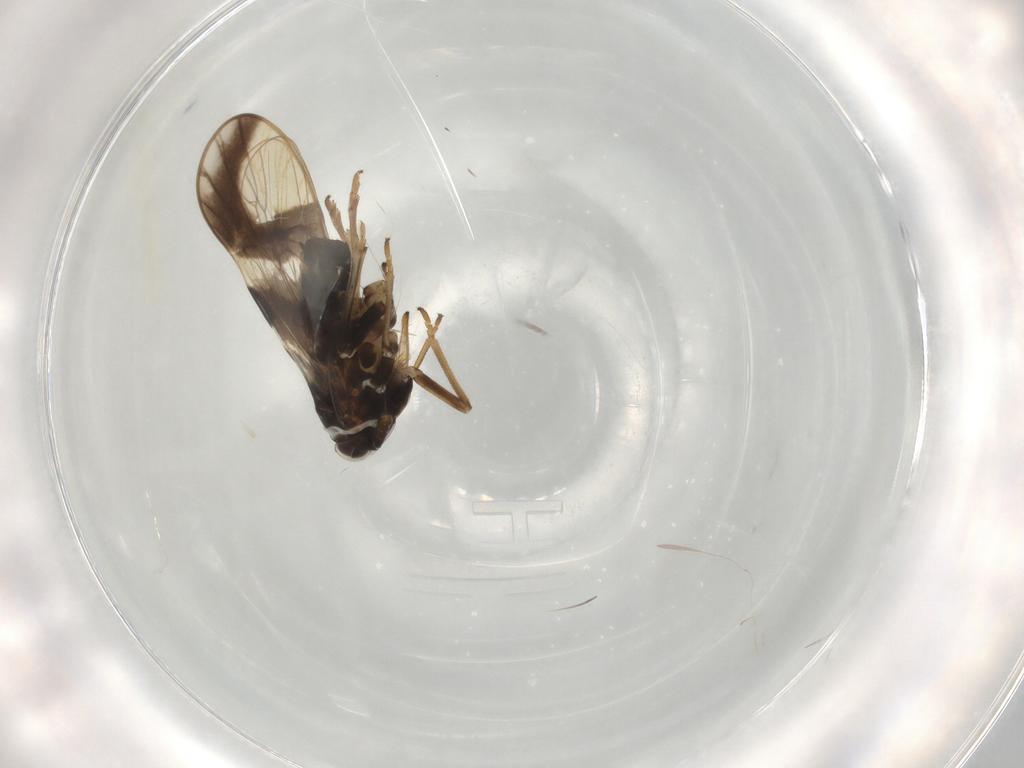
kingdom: Animalia
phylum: Arthropoda
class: Insecta
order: Hemiptera
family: Delphacidae
